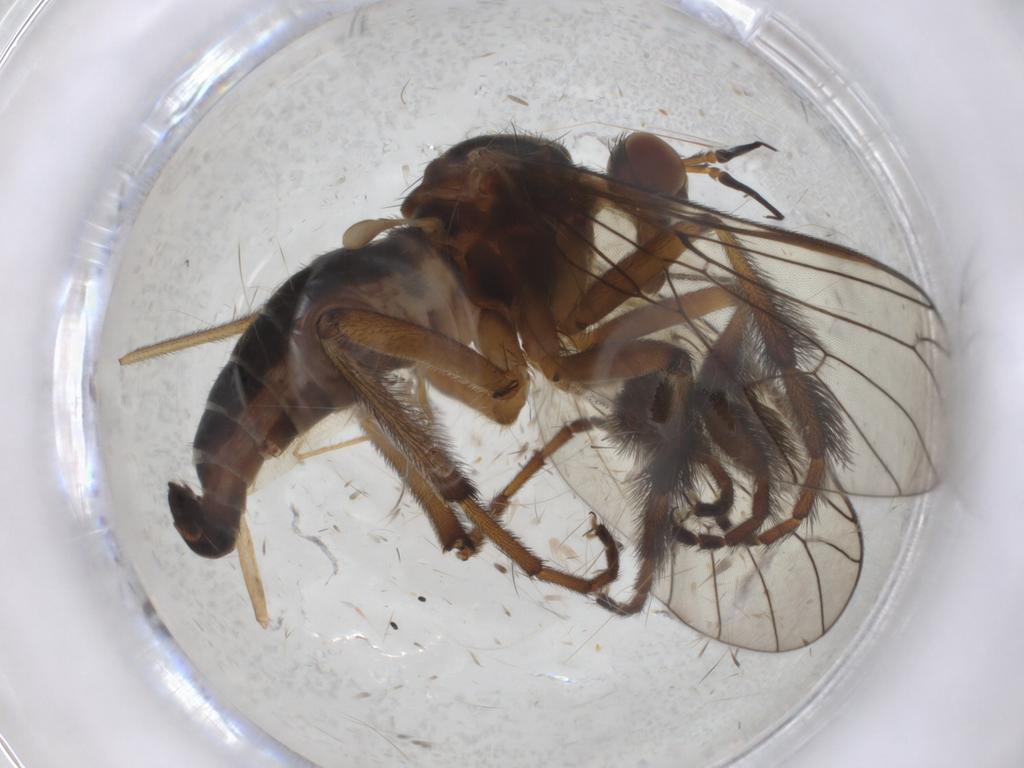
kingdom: Animalia
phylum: Arthropoda
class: Insecta
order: Diptera
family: Empididae
